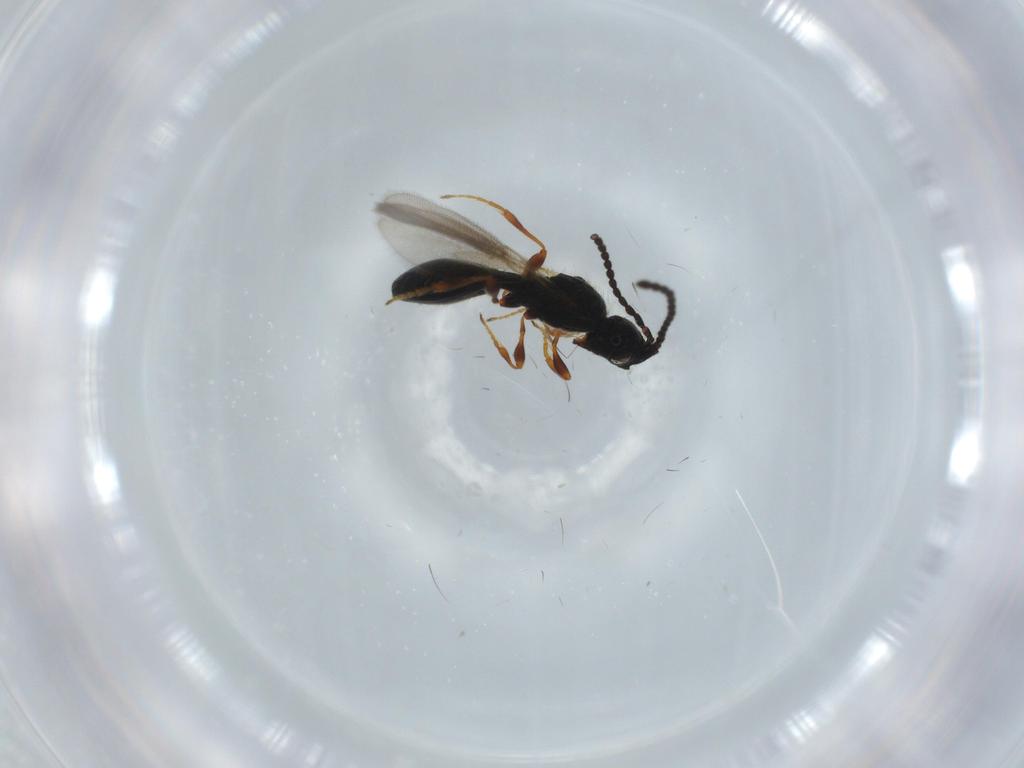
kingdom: Animalia
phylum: Arthropoda
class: Insecta
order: Hymenoptera
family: Diapriidae
